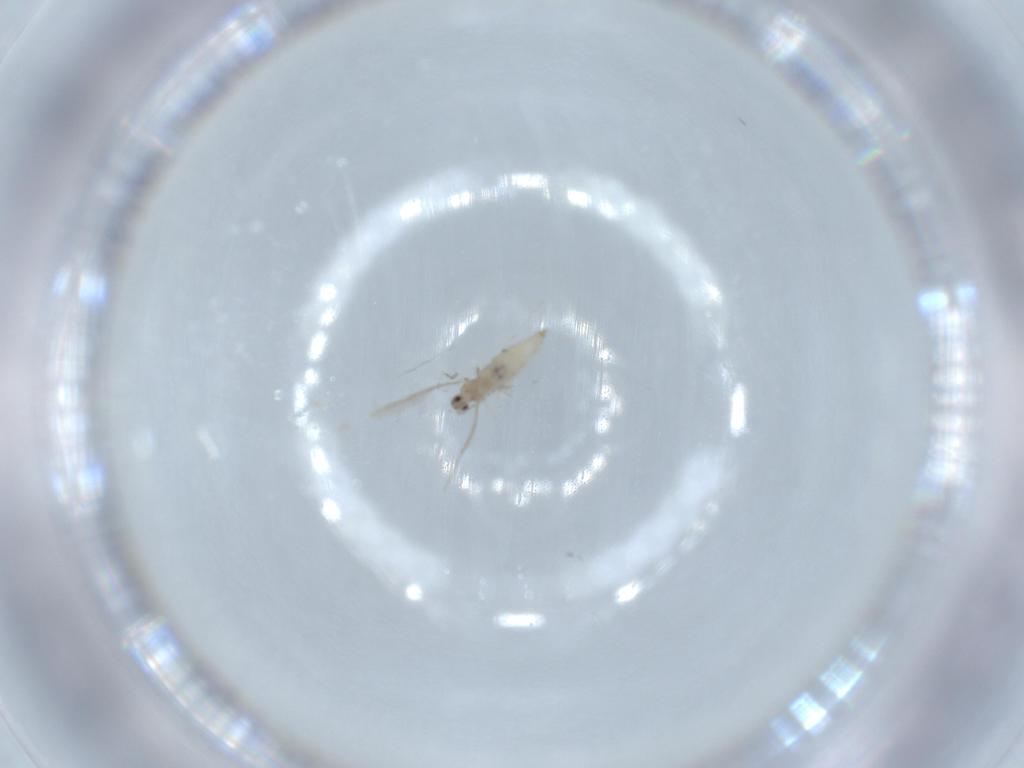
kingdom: Animalia
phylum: Arthropoda
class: Insecta
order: Diptera
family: Cecidomyiidae
